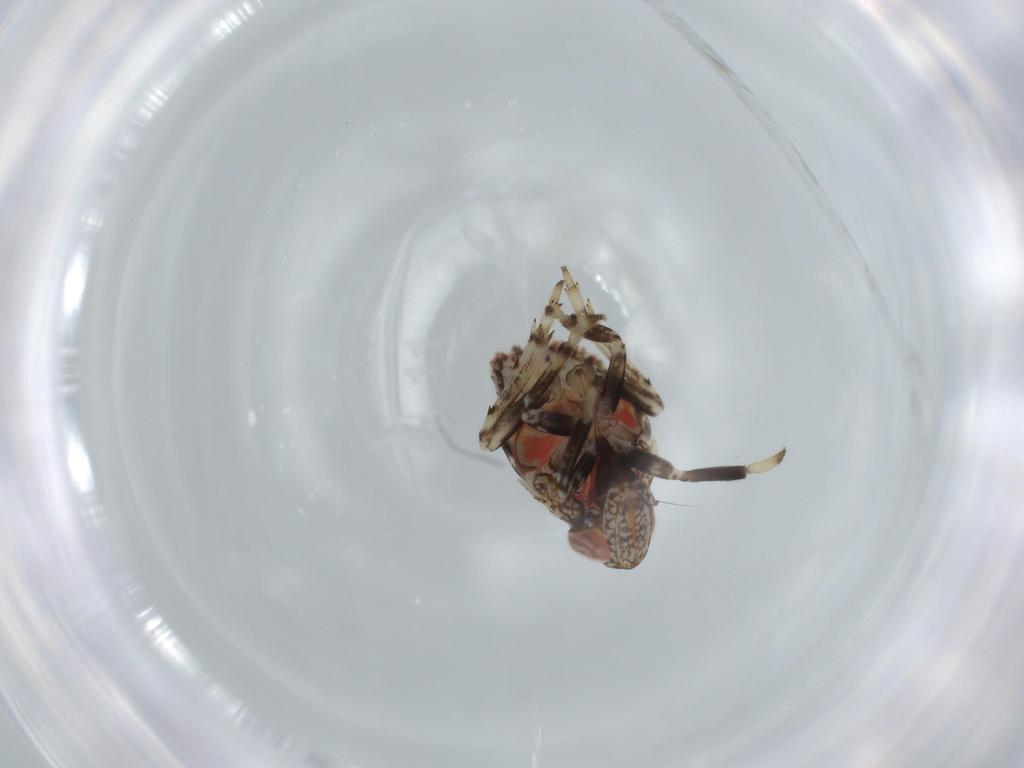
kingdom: Animalia
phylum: Arthropoda
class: Insecta
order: Hemiptera
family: Issidae
